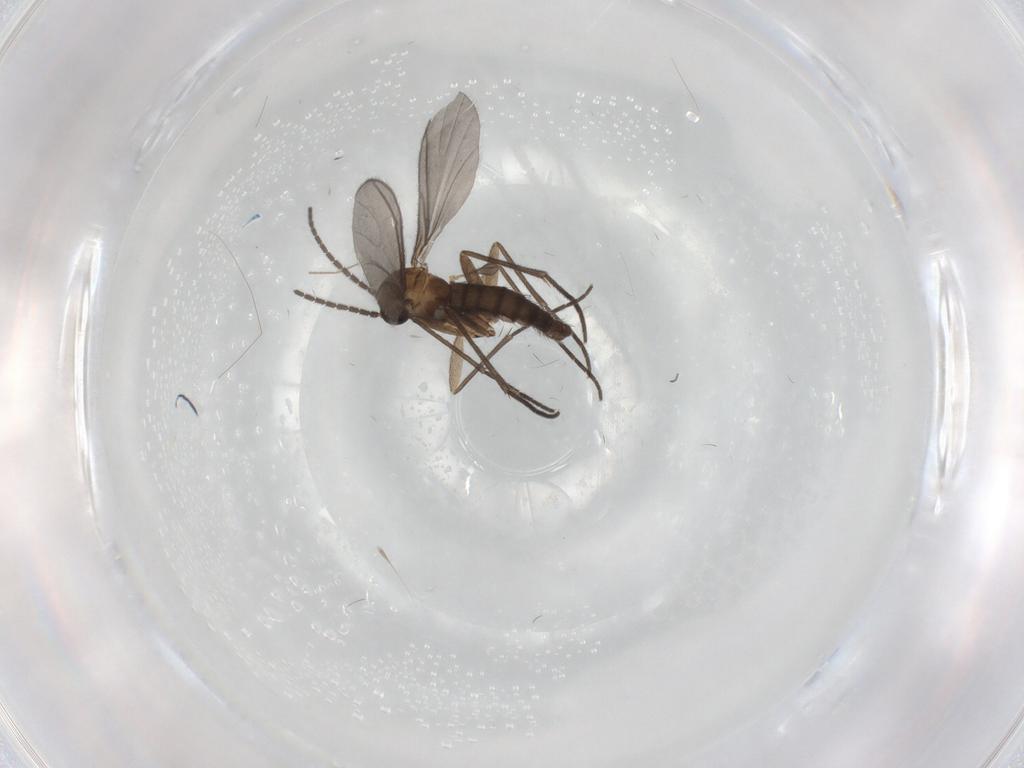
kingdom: Animalia
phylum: Arthropoda
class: Insecta
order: Diptera
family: Sciaridae
